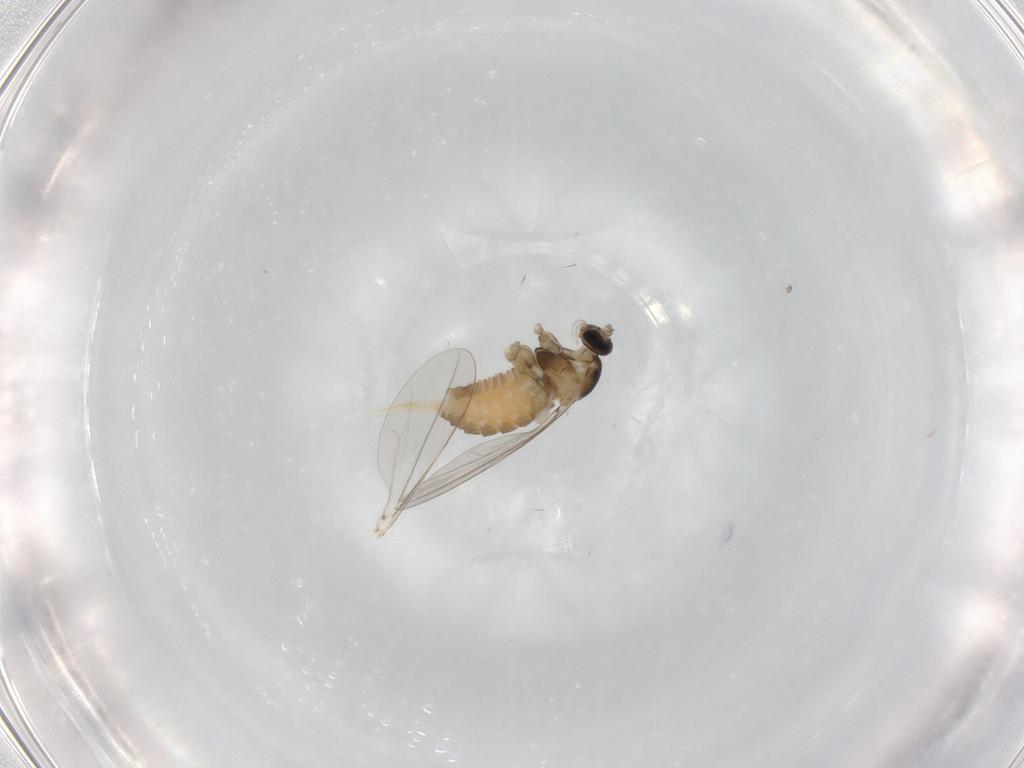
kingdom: Animalia
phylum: Arthropoda
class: Insecta
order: Diptera
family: Cecidomyiidae
